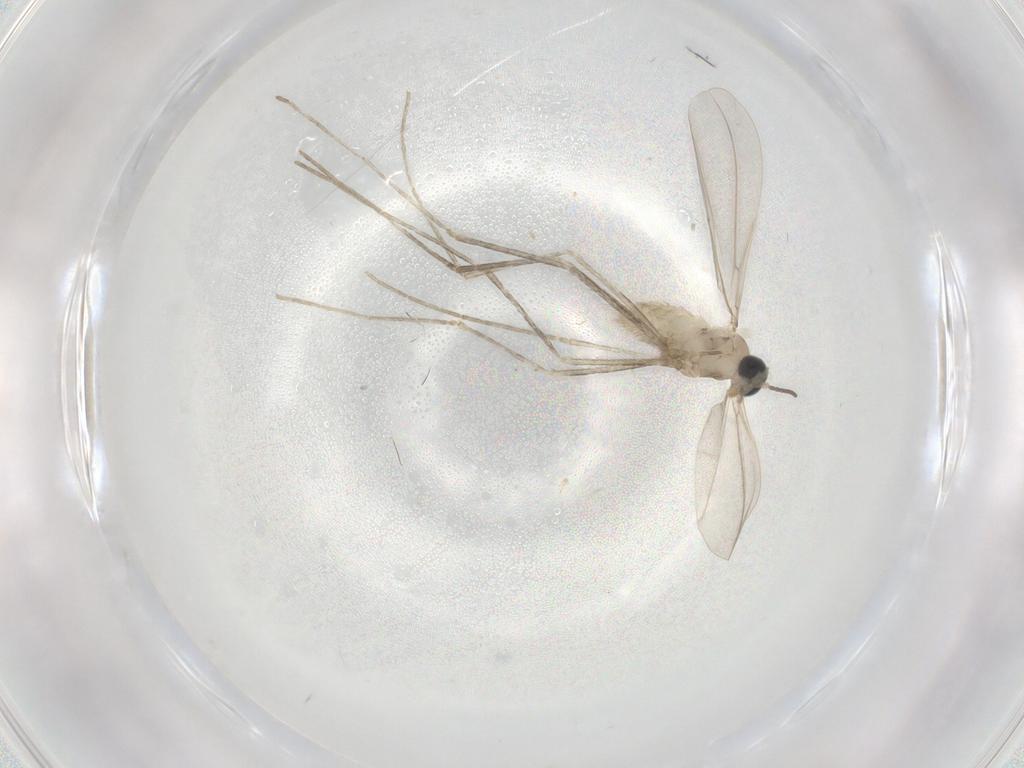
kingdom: Animalia
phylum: Arthropoda
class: Insecta
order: Diptera
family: Cecidomyiidae
